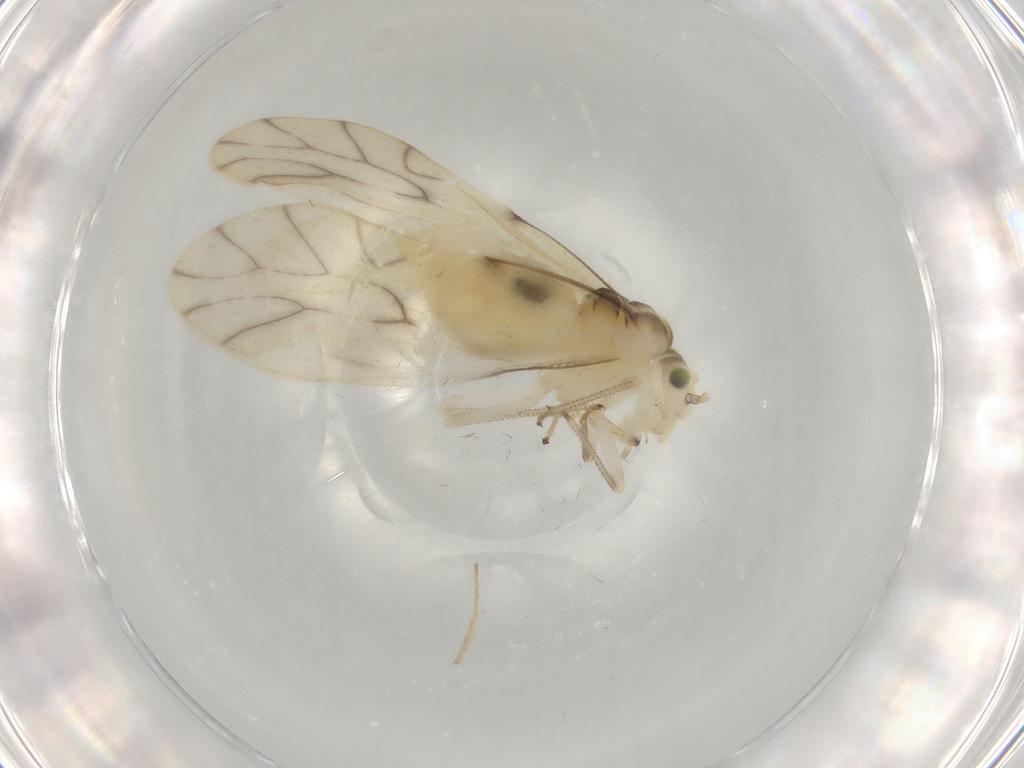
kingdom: Animalia
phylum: Arthropoda
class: Insecta
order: Psocodea
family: Caeciliusidae
